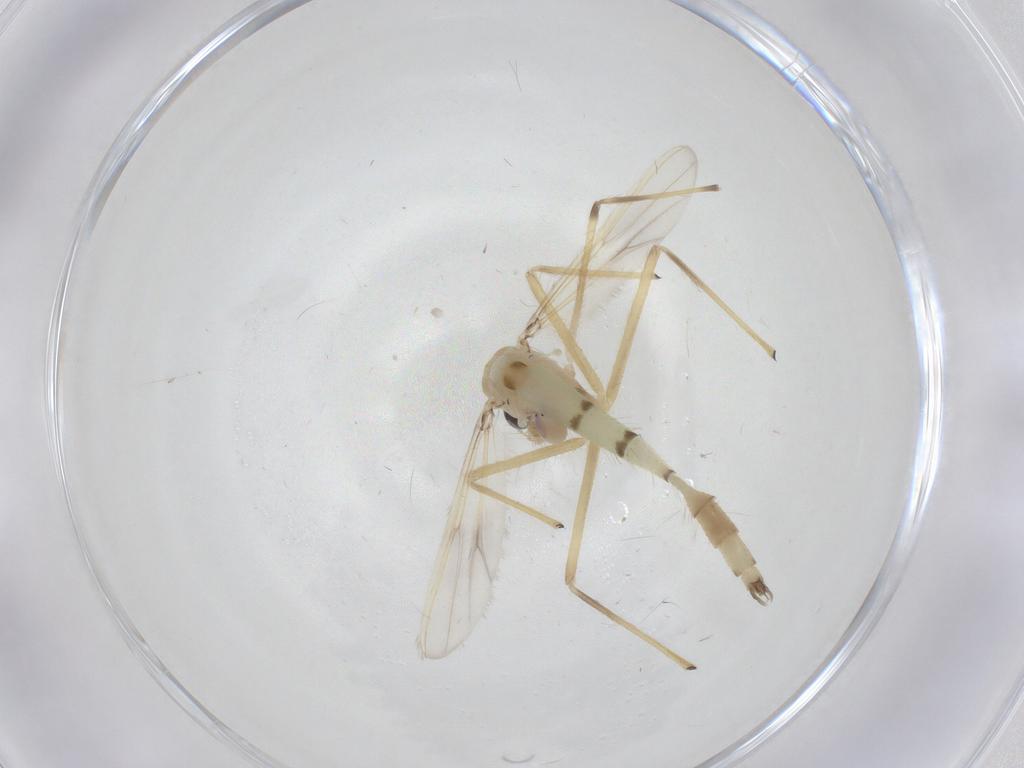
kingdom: Animalia
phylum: Arthropoda
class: Insecta
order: Diptera
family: Chironomidae
